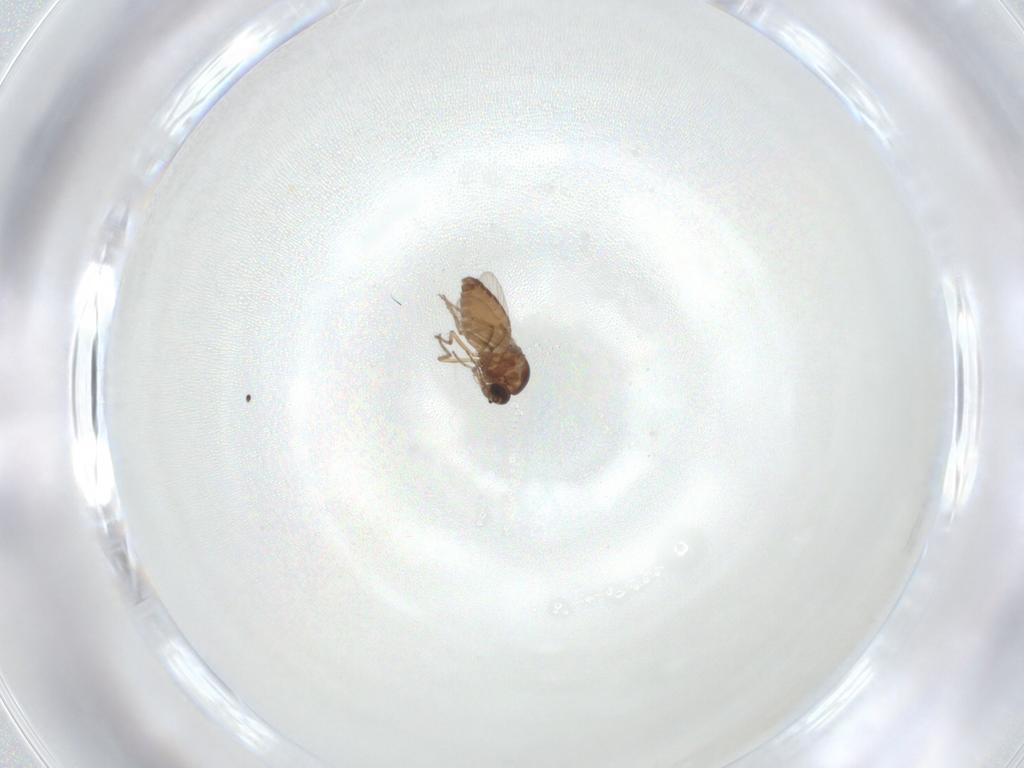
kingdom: Animalia
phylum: Arthropoda
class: Insecta
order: Diptera
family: Ceratopogonidae
